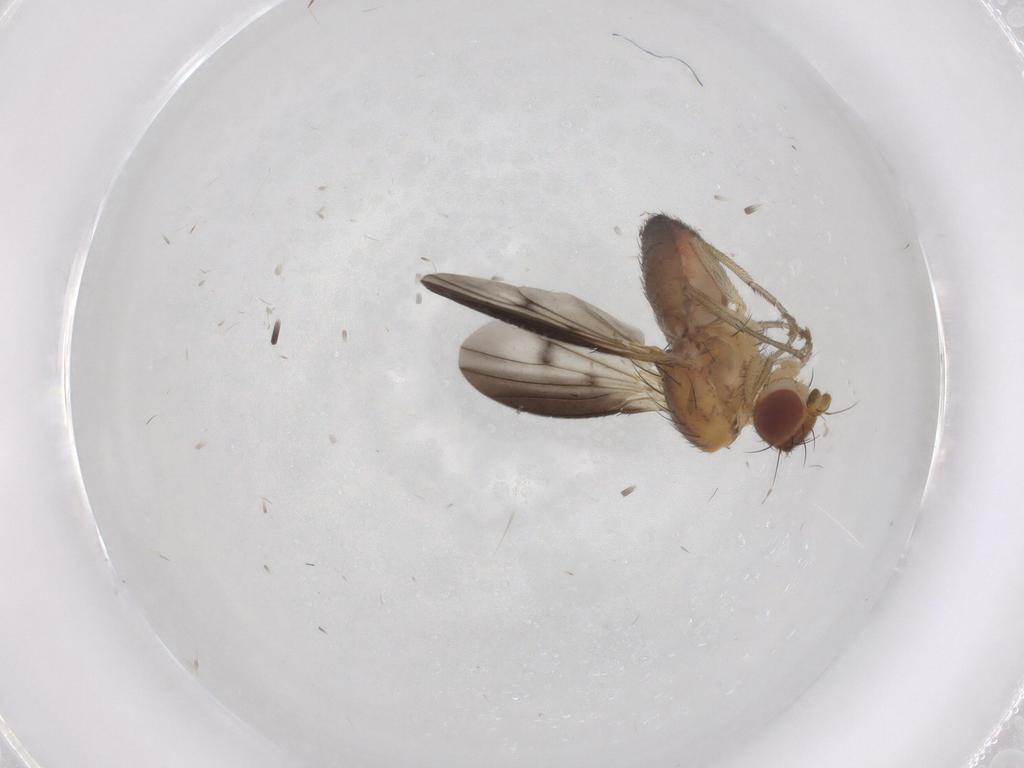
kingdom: Animalia
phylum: Arthropoda
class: Insecta
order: Diptera
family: Heleomyzidae
